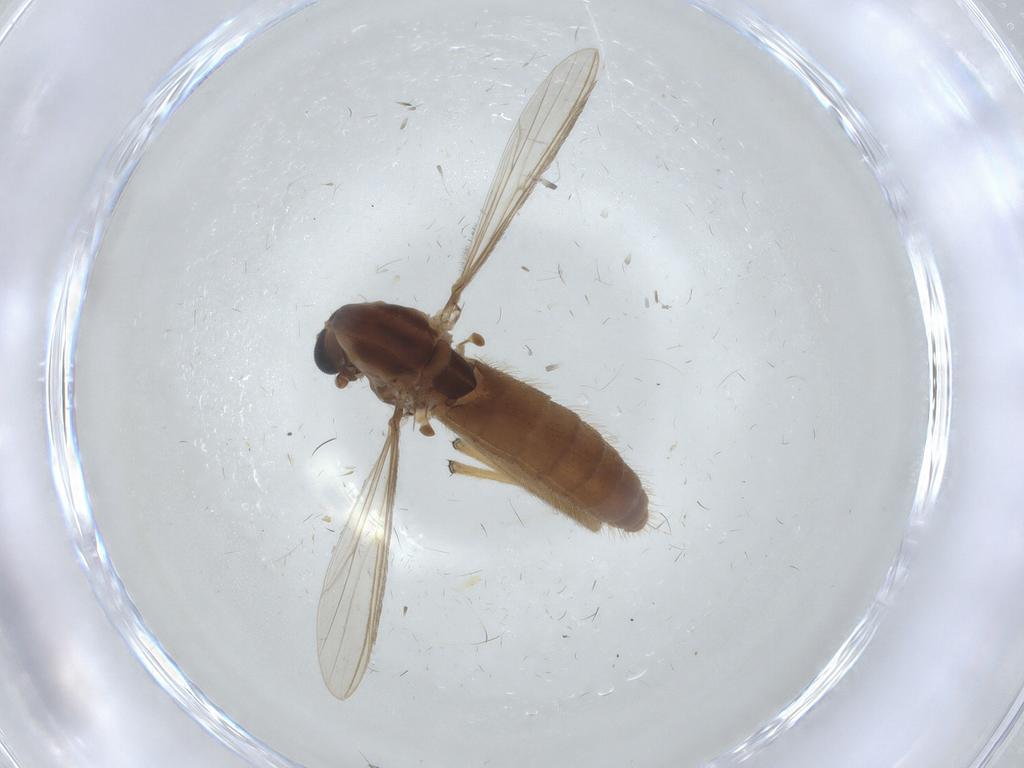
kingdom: Animalia
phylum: Arthropoda
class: Insecta
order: Diptera
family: Chironomidae
